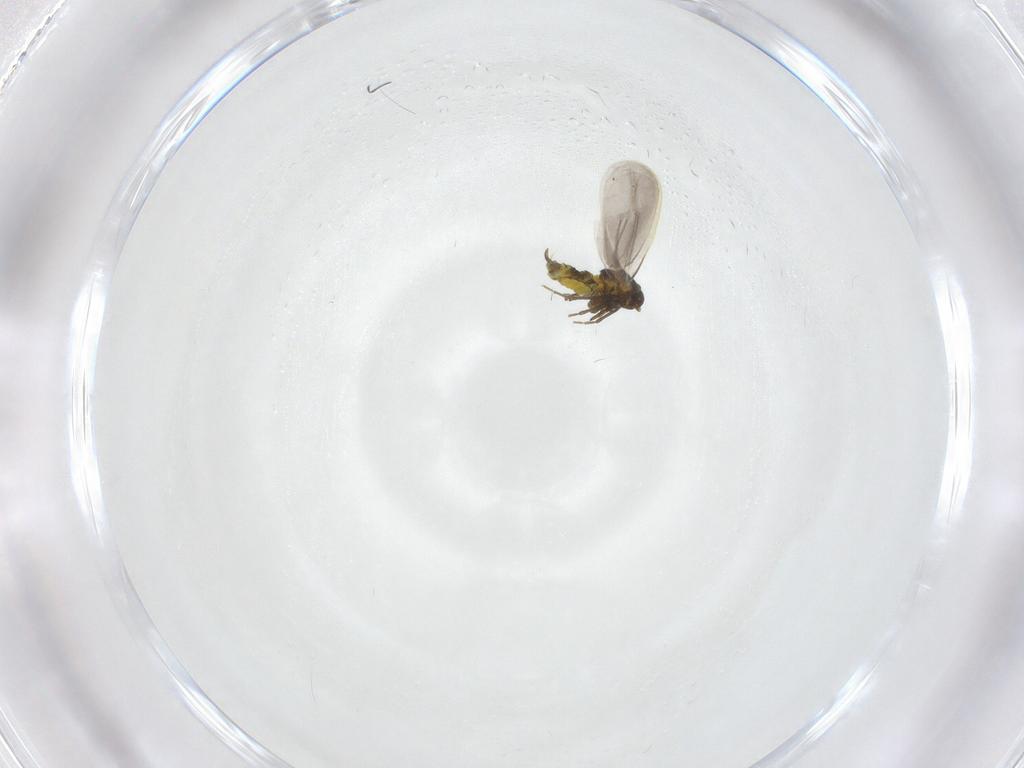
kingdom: Animalia
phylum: Arthropoda
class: Insecta
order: Hemiptera
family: Aleyrodidae
